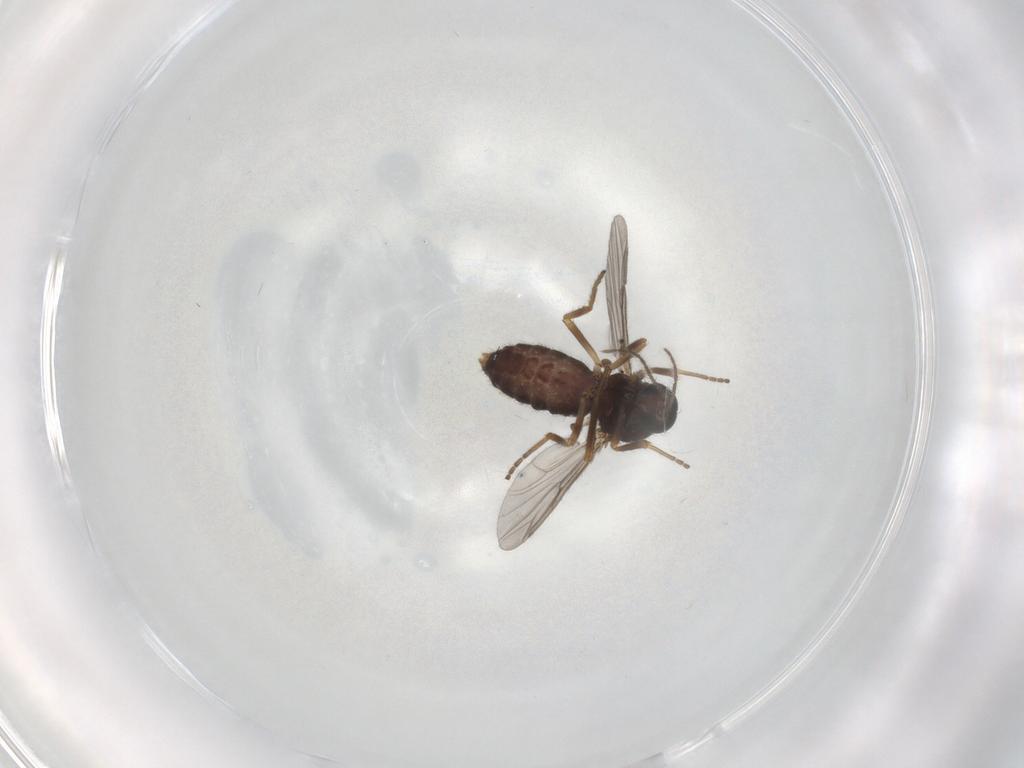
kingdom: Animalia
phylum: Arthropoda
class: Insecta
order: Diptera
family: Ceratopogonidae
